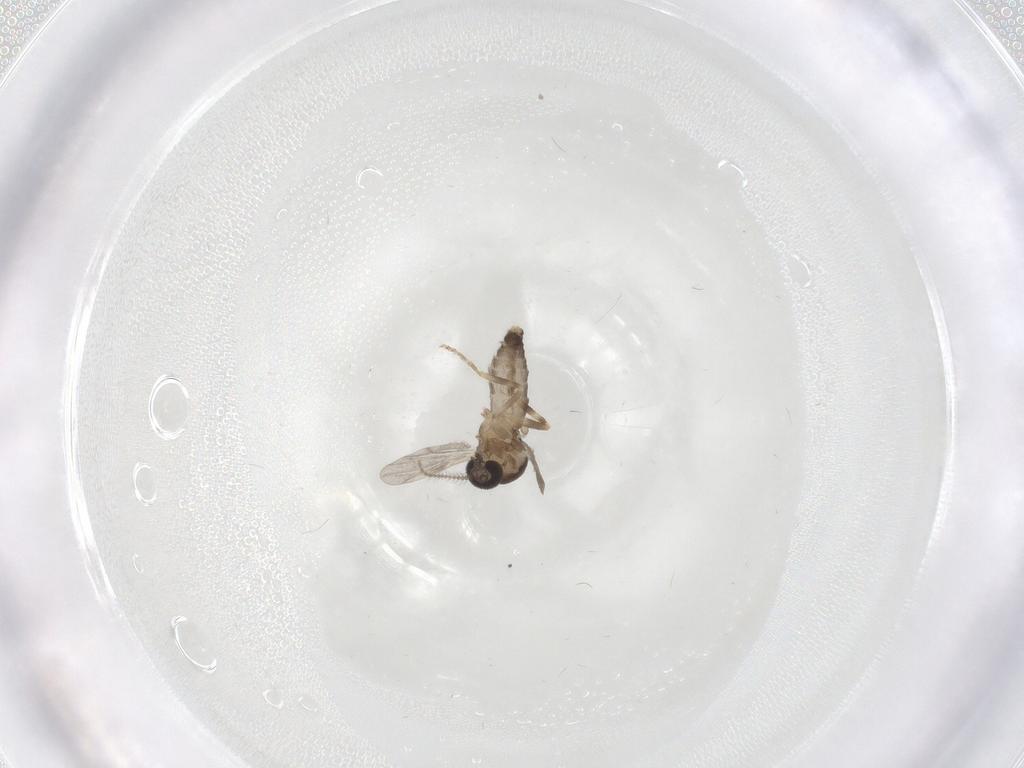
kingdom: Animalia
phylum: Arthropoda
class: Insecta
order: Diptera
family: Ceratopogonidae
